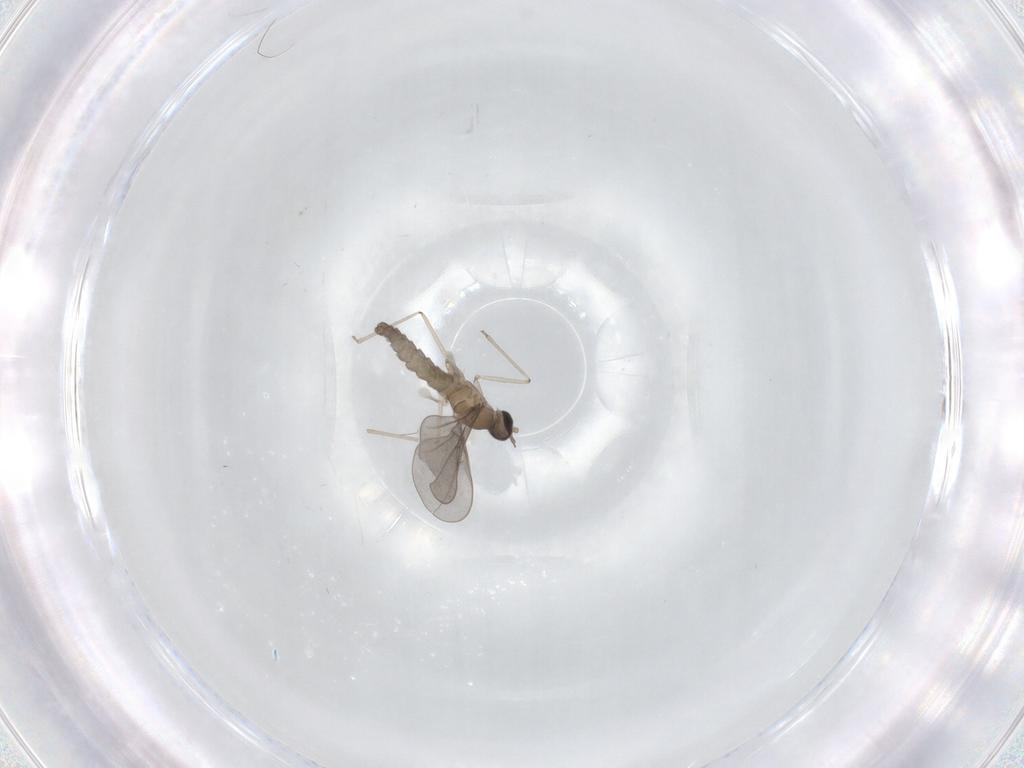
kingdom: Animalia
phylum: Arthropoda
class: Insecta
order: Diptera
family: Cecidomyiidae
